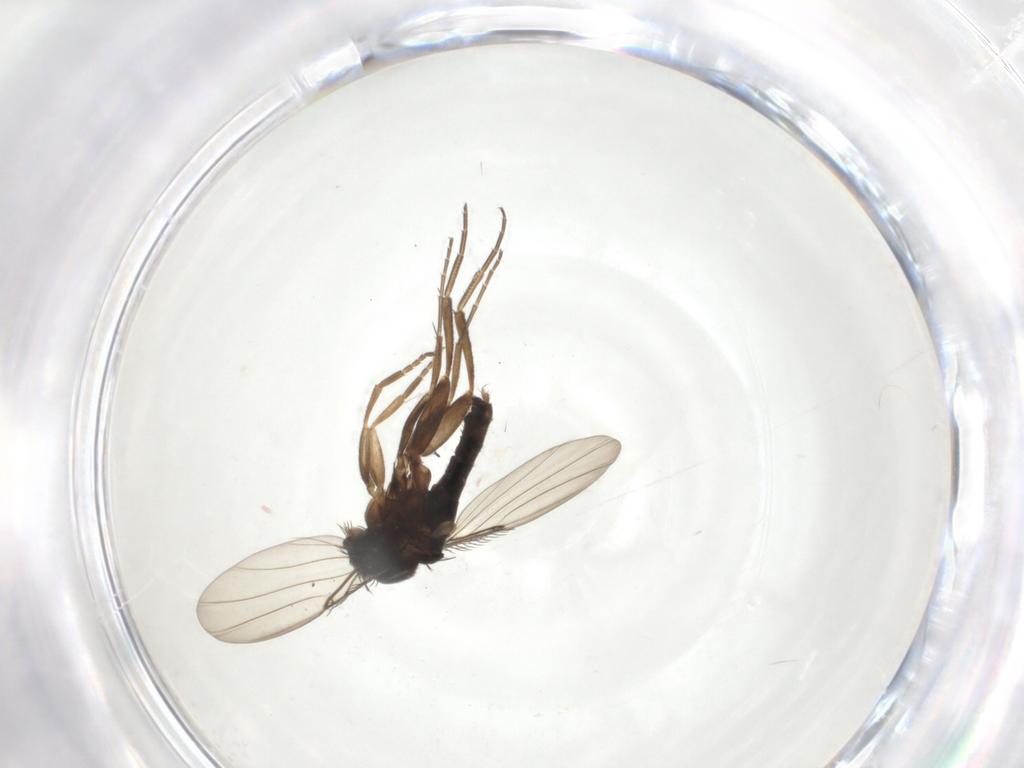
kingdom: Animalia
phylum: Arthropoda
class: Insecta
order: Diptera
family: Phoridae
